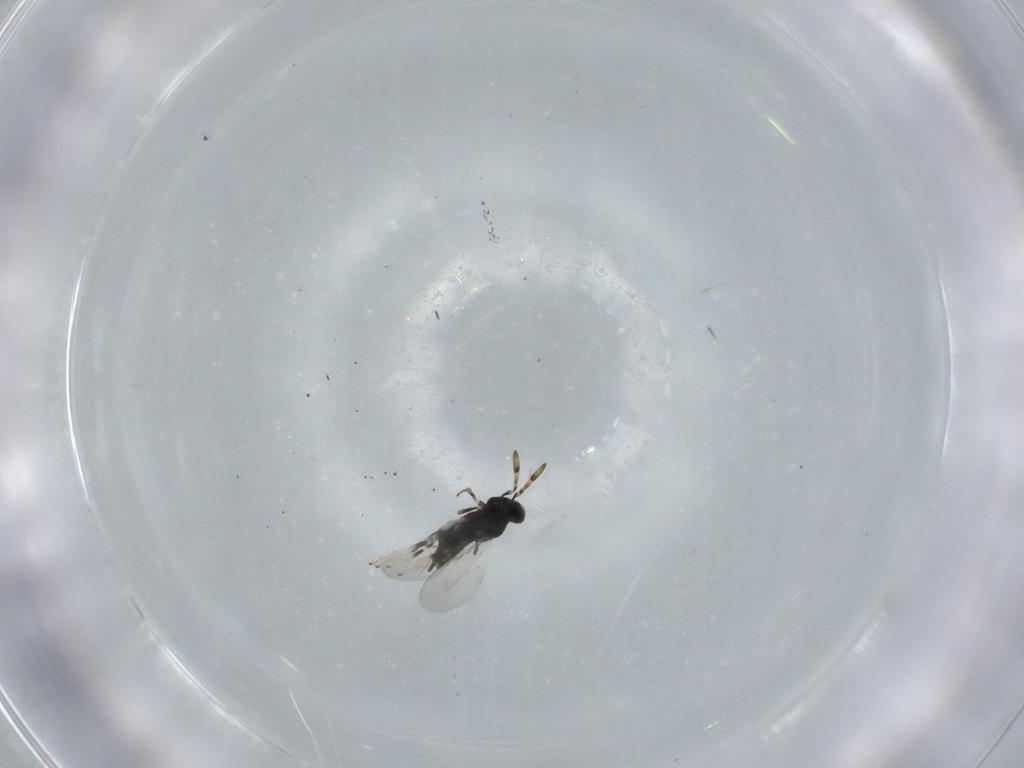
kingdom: Animalia
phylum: Arthropoda
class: Insecta
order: Hymenoptera
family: Aphelinidae
